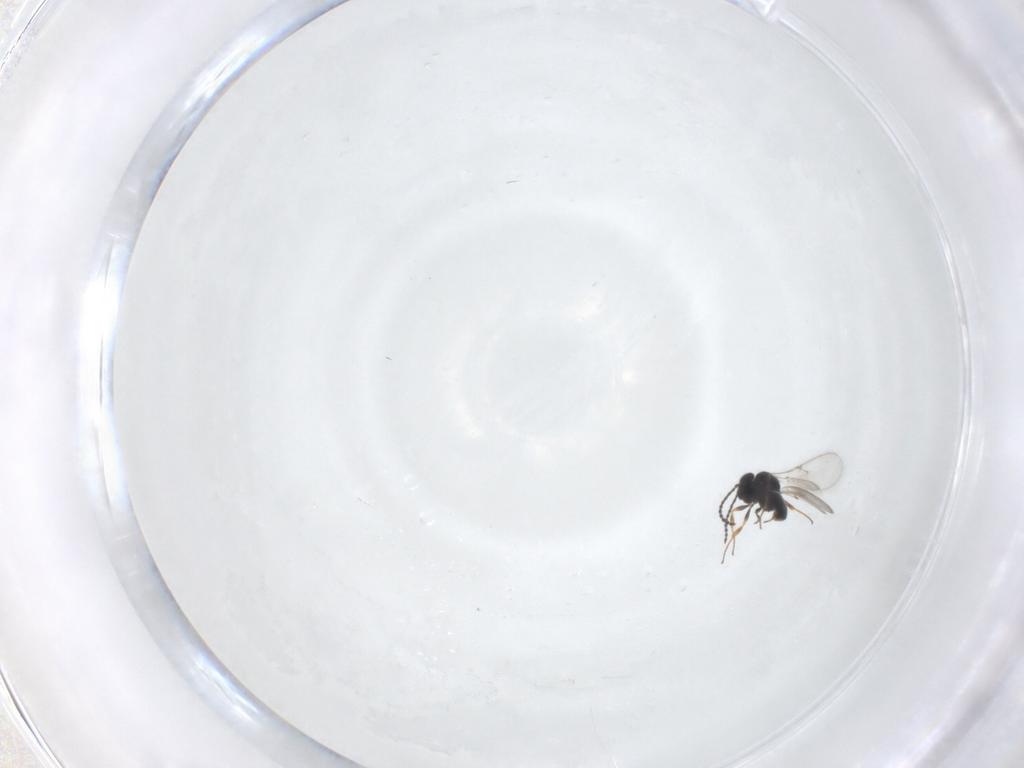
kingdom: Animalia
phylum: Arthropoda
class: Insecta
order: Hymenoptera
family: Scelionidae
